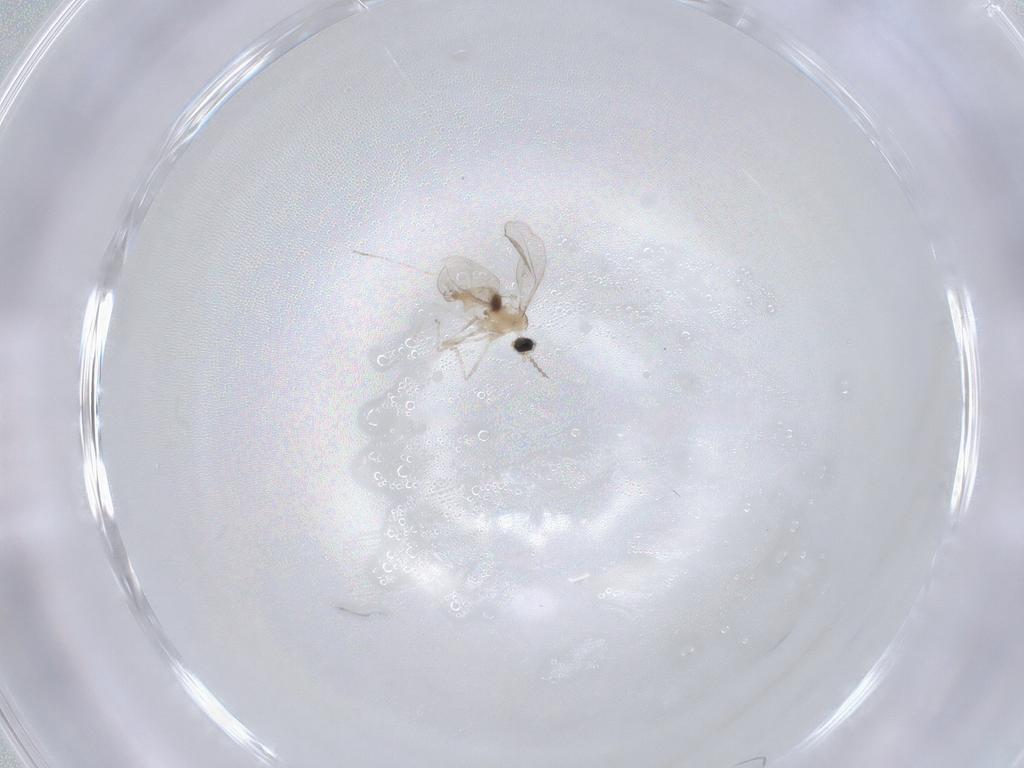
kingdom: Animalia
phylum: Arthropoda
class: Insecta
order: Diptera
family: Cecidomyiidae
